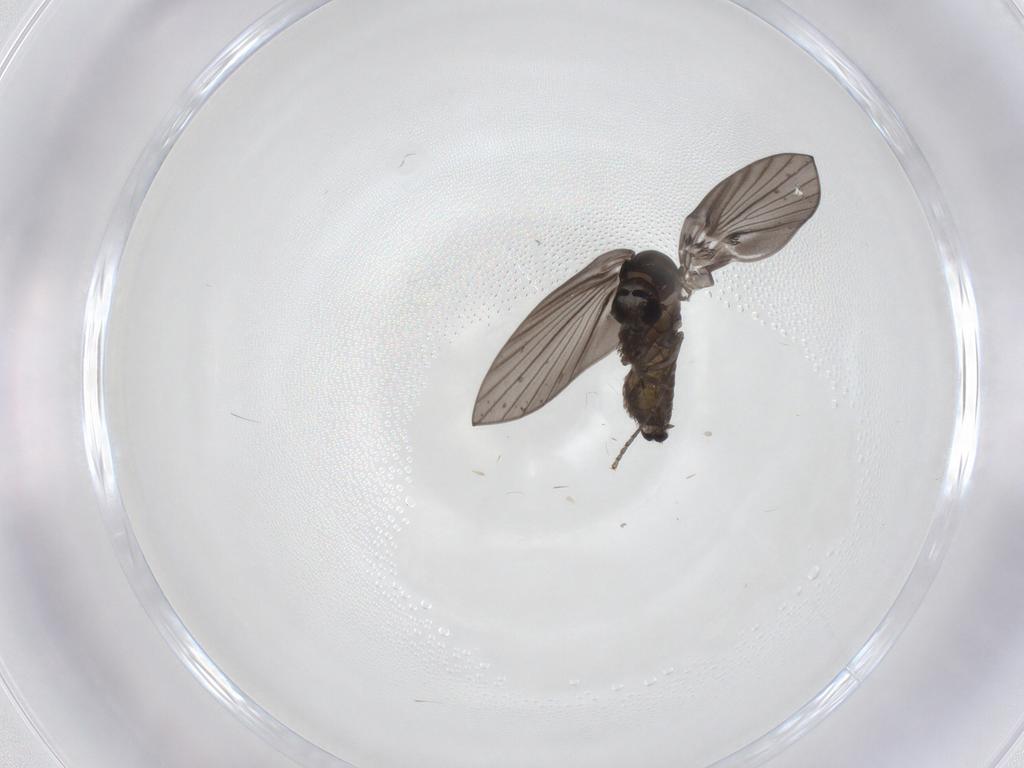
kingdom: Animalia
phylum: Arthropoda
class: Insecta
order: Diptera
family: Psychodidae
